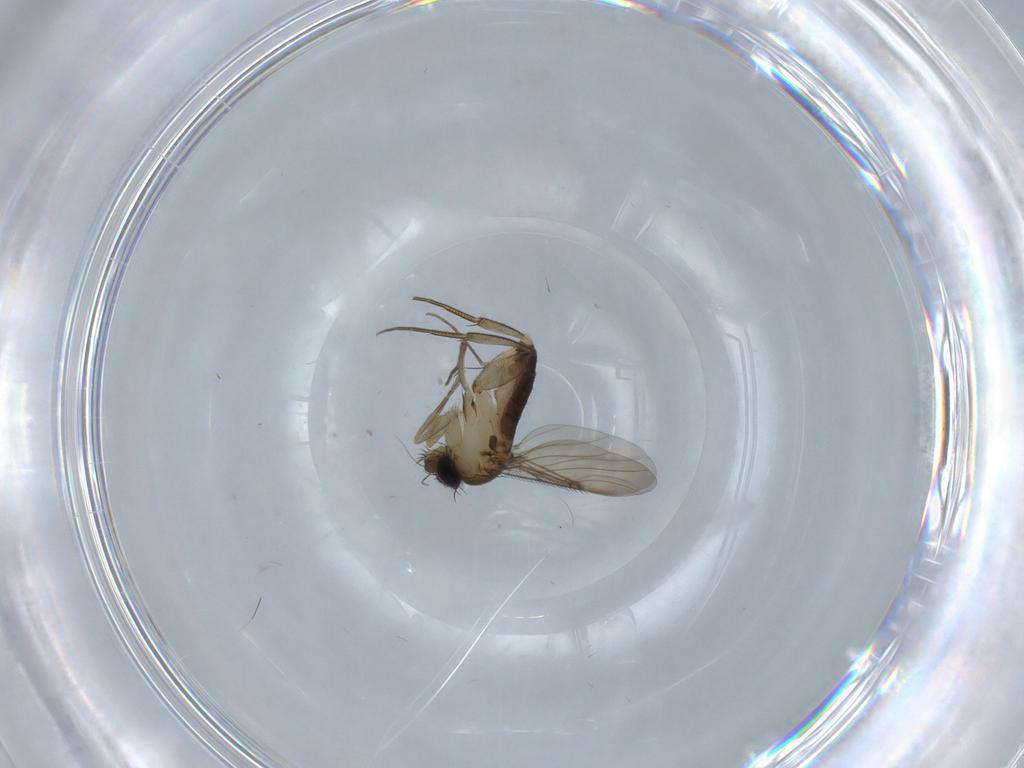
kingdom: Animalia
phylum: Arthropoda
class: Insecta
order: Diptera
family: Phoridae
